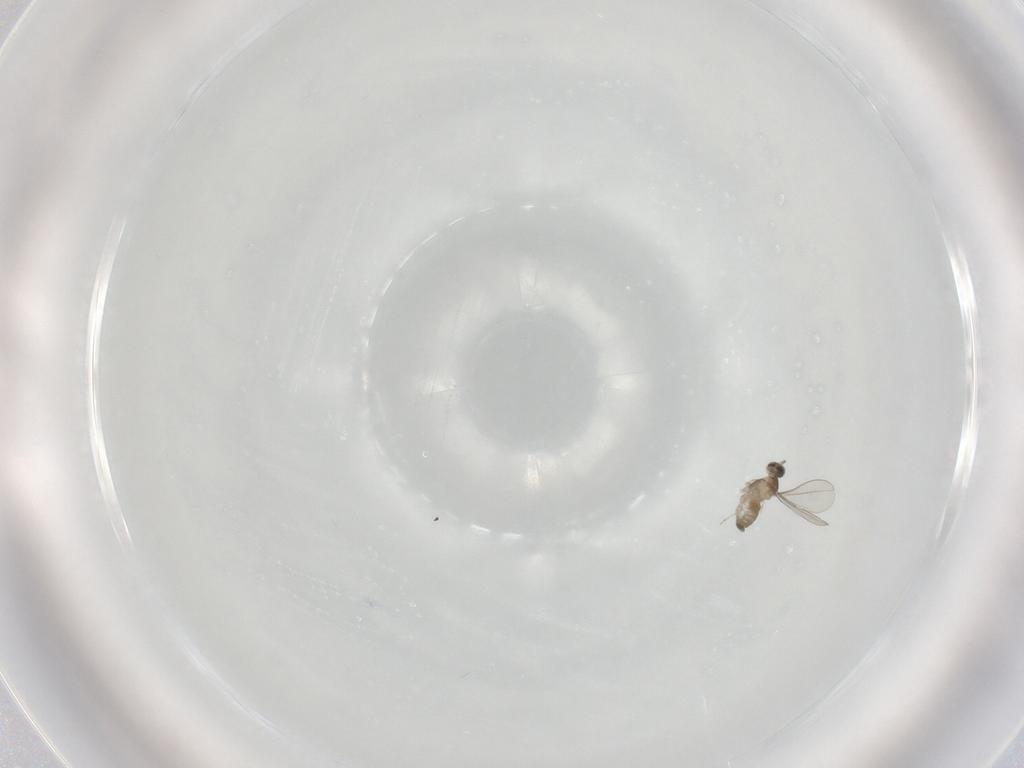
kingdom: Animalia
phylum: Arthropoda
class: Insecta
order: Diptera
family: Cecidomyiidae
